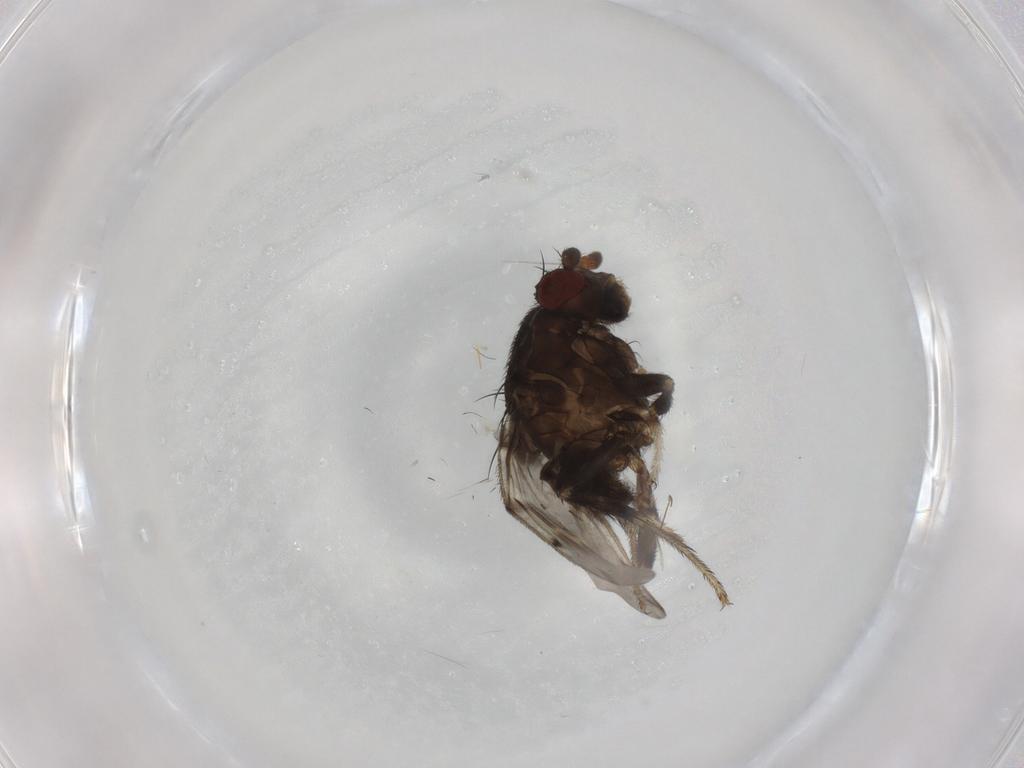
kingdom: Animalia
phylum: Arthropoda
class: Insecta
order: Diptera
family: Sphaeroceridae
